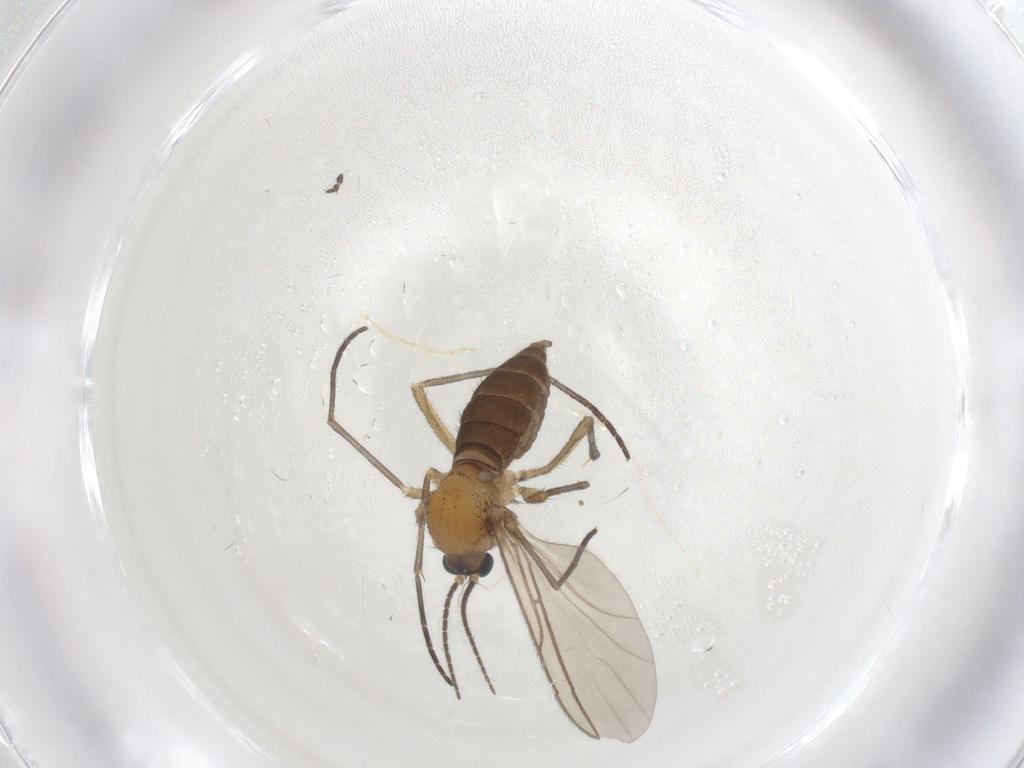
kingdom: Animalia
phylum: Arthropoda
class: Insecta
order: Diptera
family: Sciaridae
